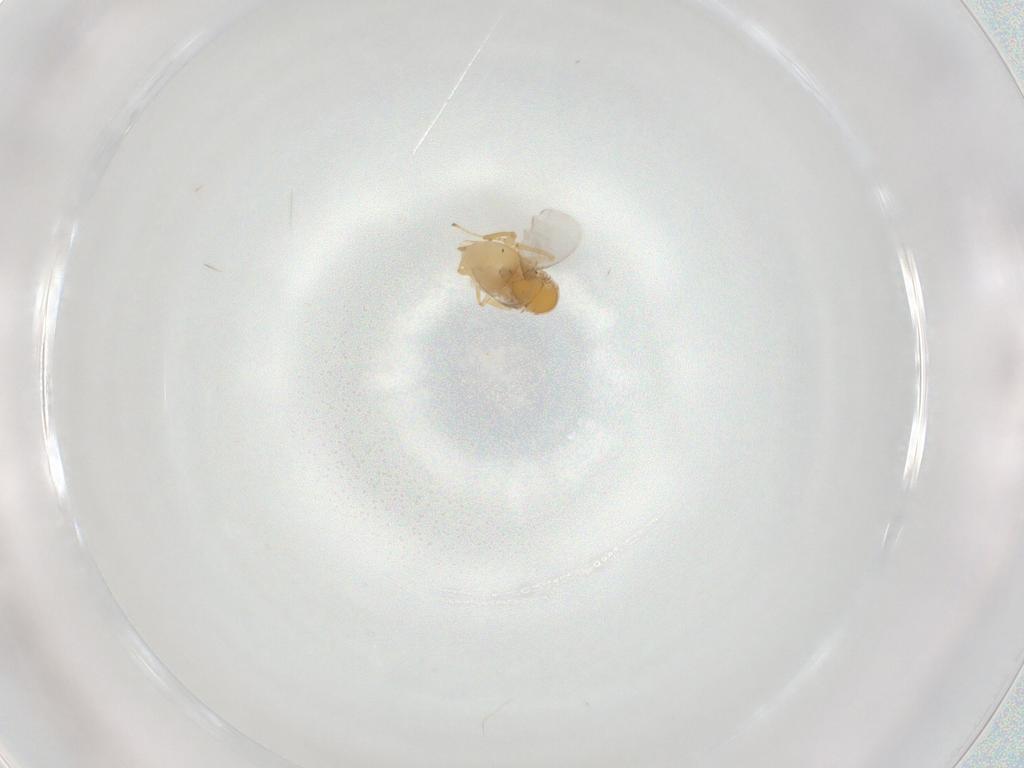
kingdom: Animalia
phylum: Arthropoda
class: Insecta
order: Hymenoptera
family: Vespidae
